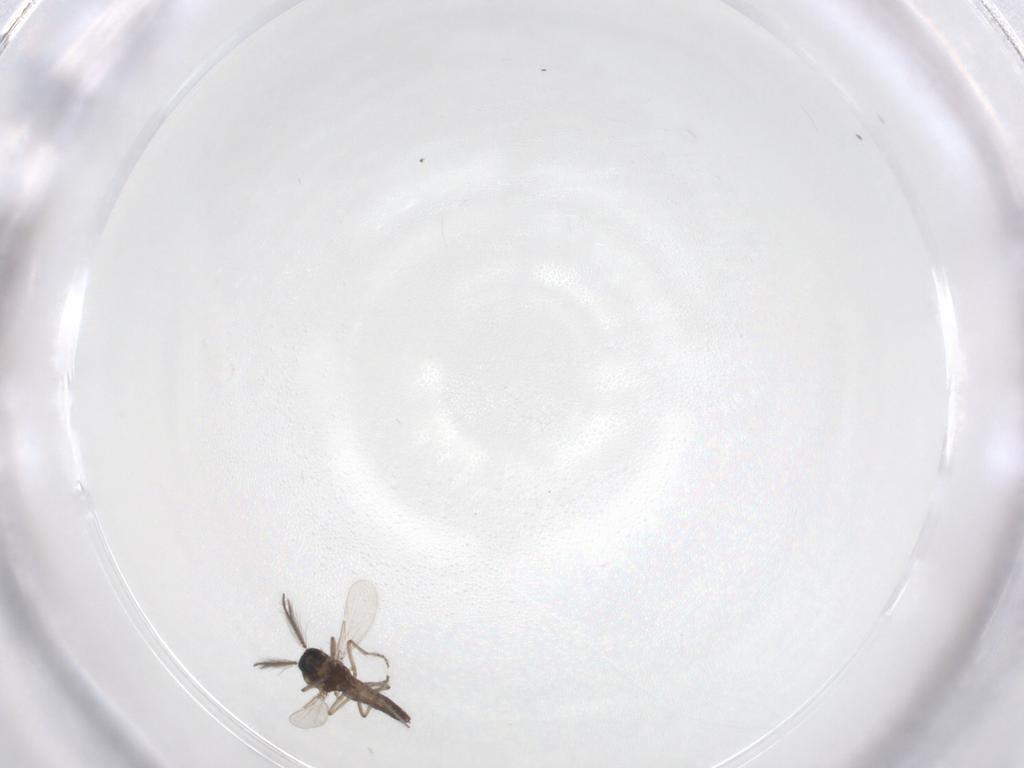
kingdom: Animalia
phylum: Arthropoda
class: Insecta
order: Diptera
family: Ceratopogonidae
